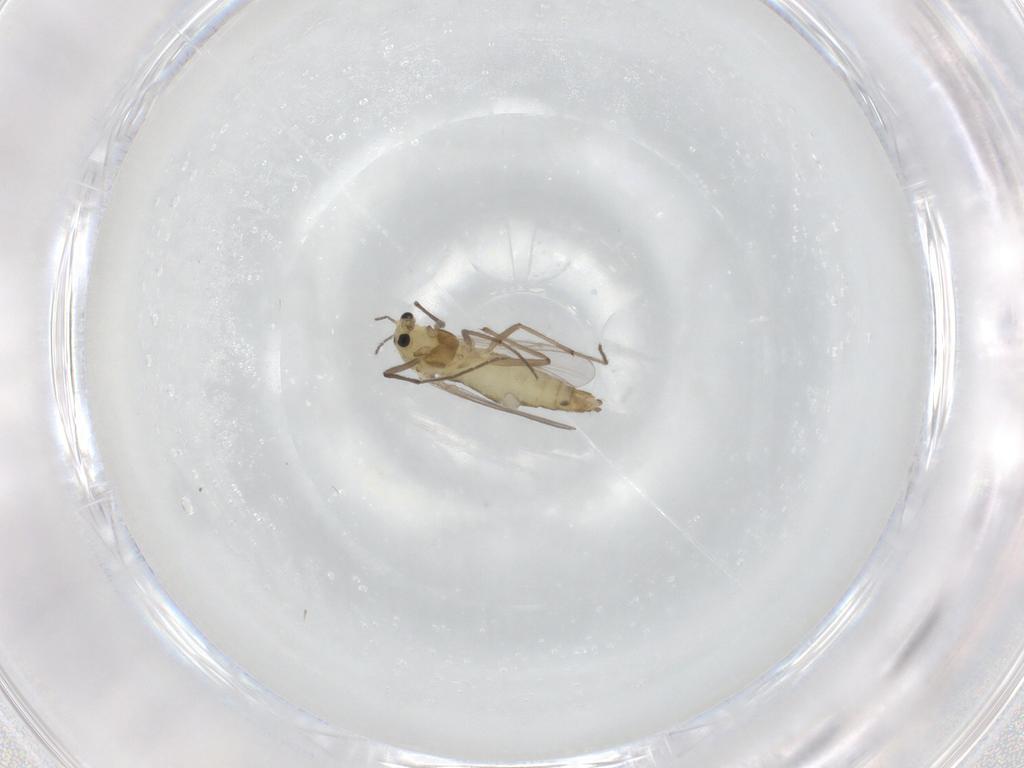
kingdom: Animalia
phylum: Arthropoda
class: Insecta
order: Diptera
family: Chironomidae
